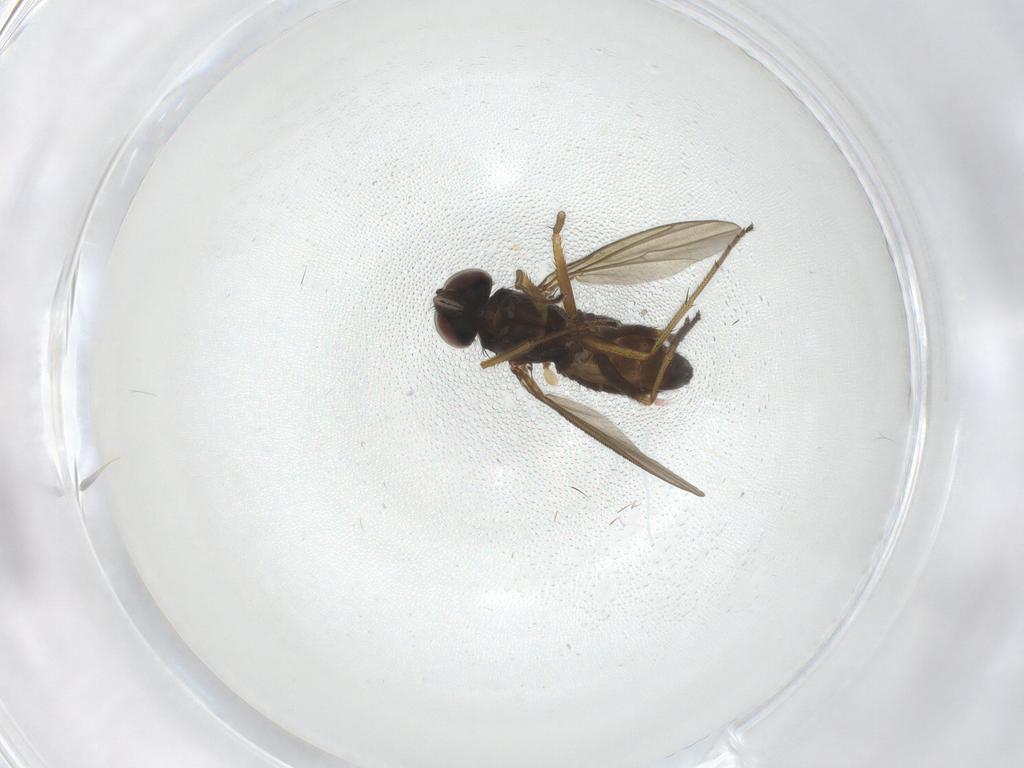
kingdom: Animalia
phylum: Arthropoda
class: Insecta
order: Diptera
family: Dolichopodidae
